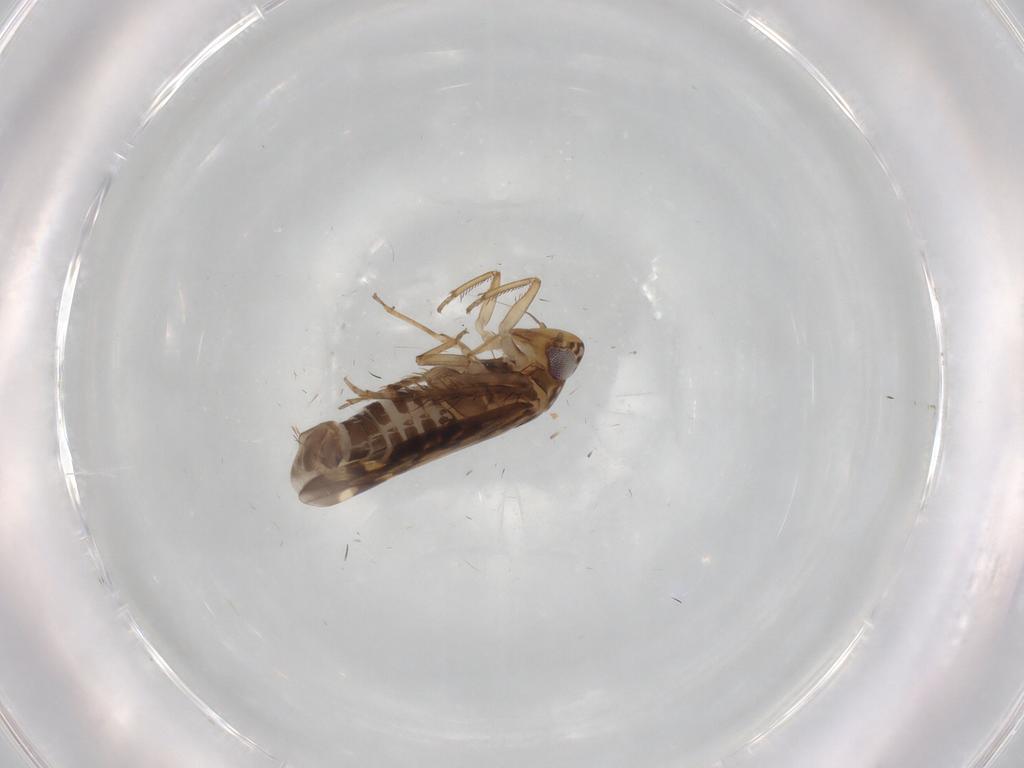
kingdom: Animalia
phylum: Arthropoda
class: Insecta
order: Hemiptera
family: Cicadellidae
